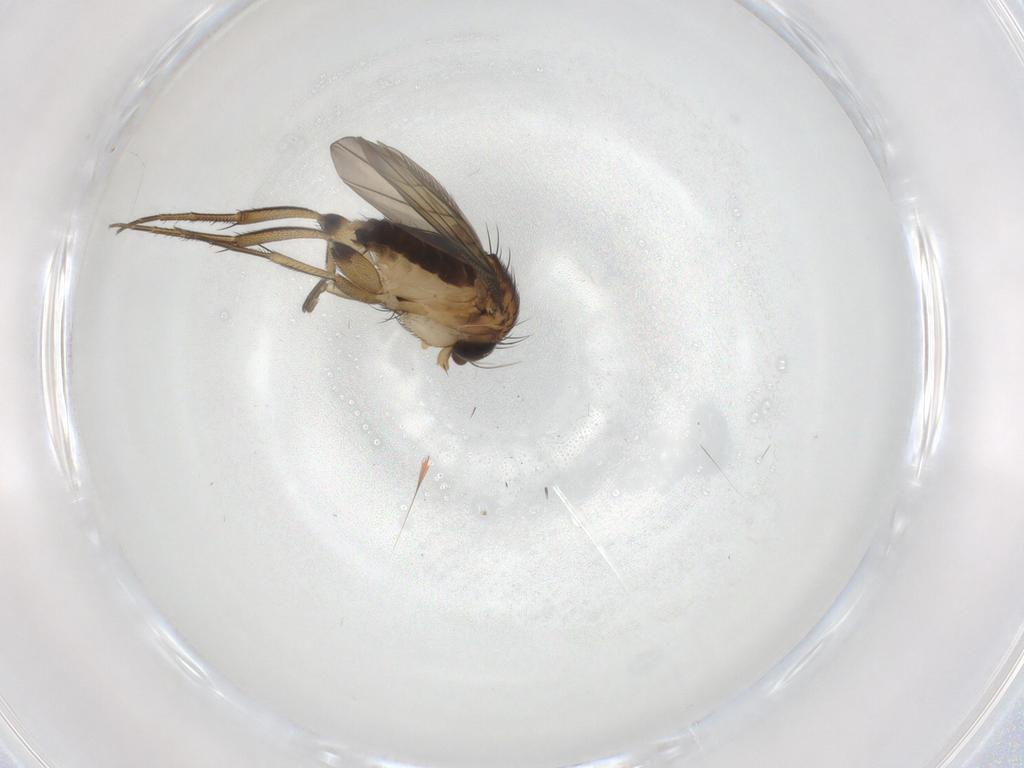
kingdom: Animalia
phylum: Arthropoda
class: Insecta
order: Diptera
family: Phoridae
